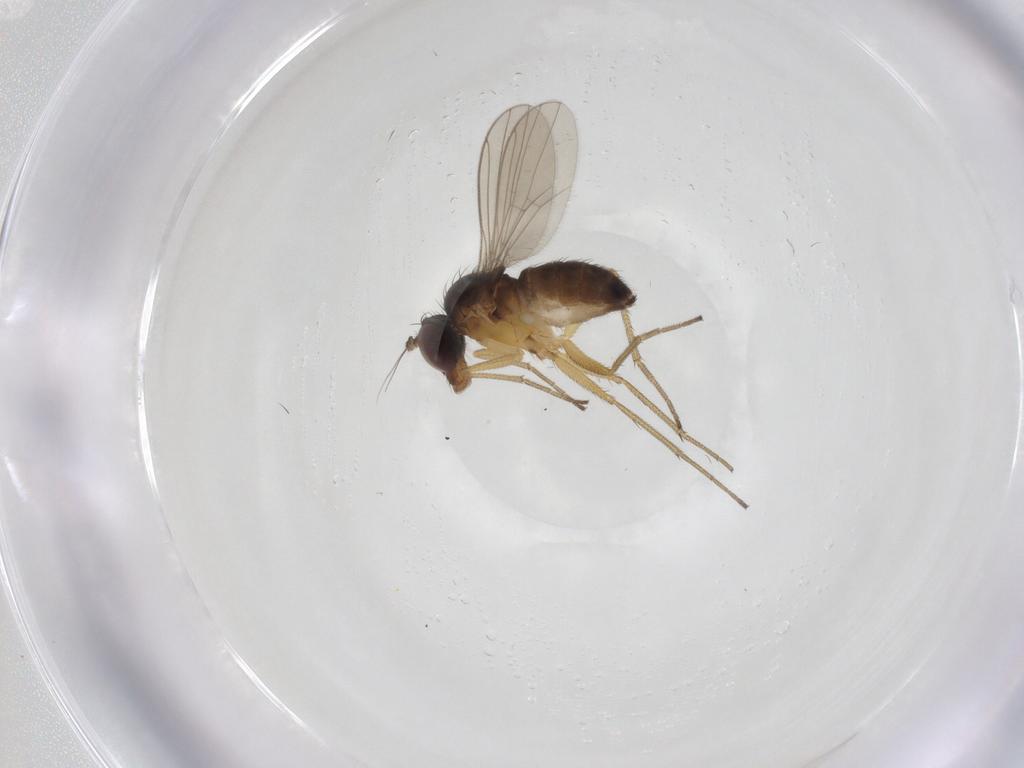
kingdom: Animalia
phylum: Arthropoda
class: Insecta
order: Diptera
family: Dolichopodidae
